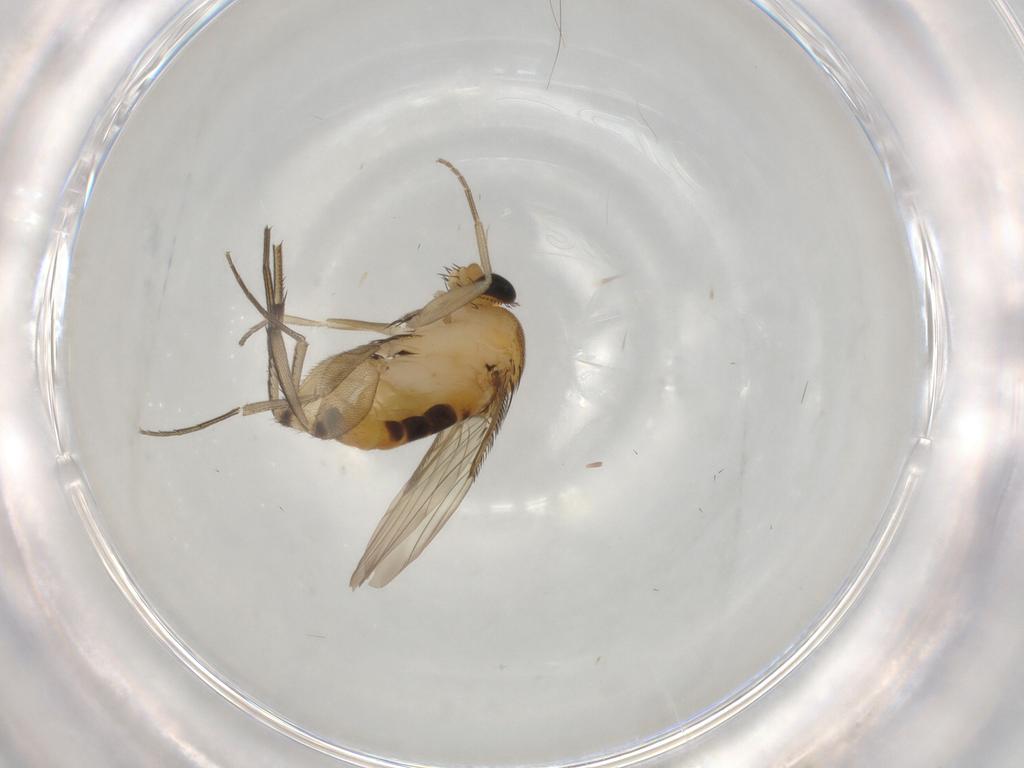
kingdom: Animalia
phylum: Arthropoda
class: Insecta
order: Diptera
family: Phoridae
